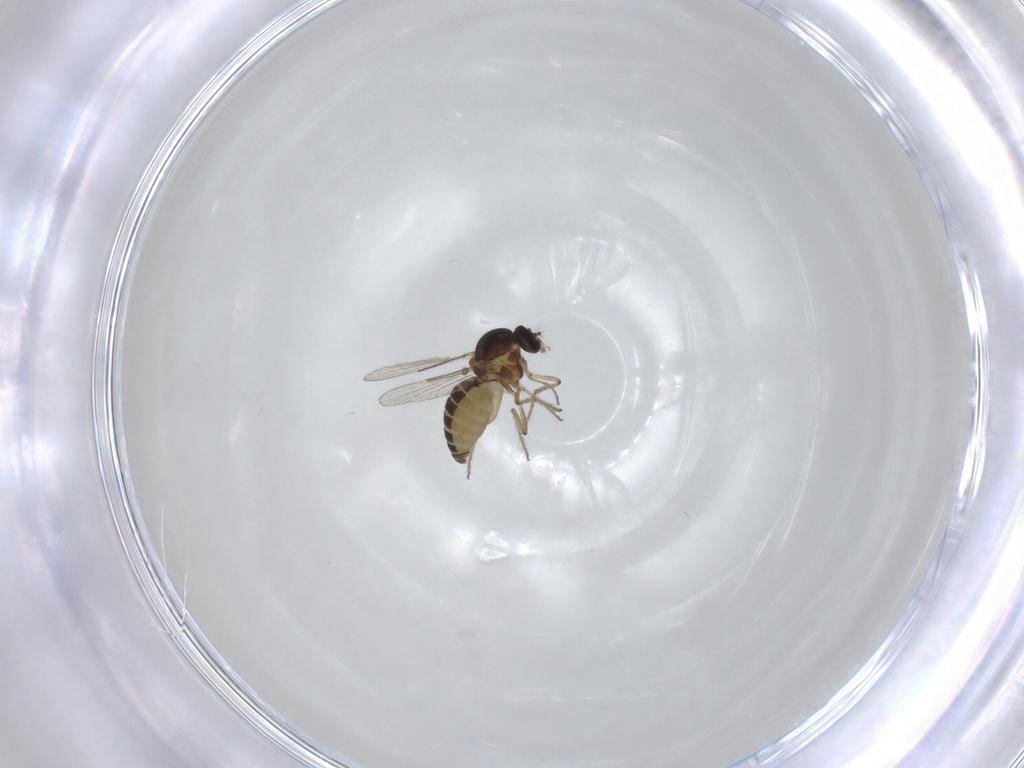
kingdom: Animalia
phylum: Arthropoda
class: Insecta
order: Diptera
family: Ceratopogonidae
